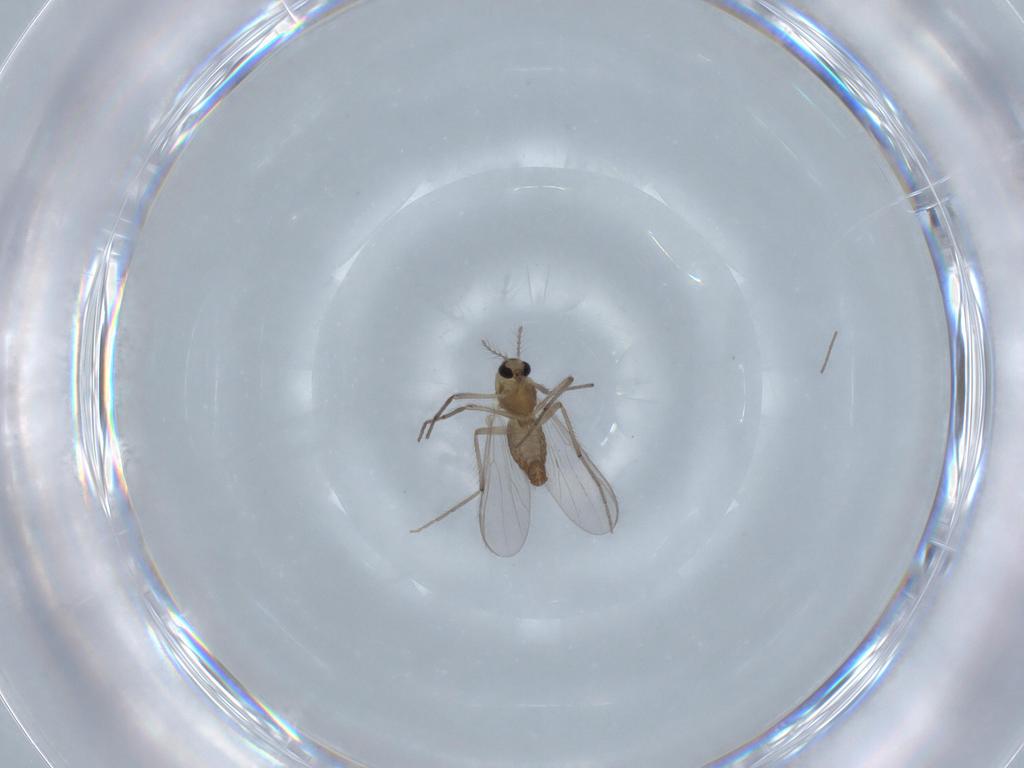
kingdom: Animalia
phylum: Arthropoda
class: Insecta
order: Diptera
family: Chironomidae
